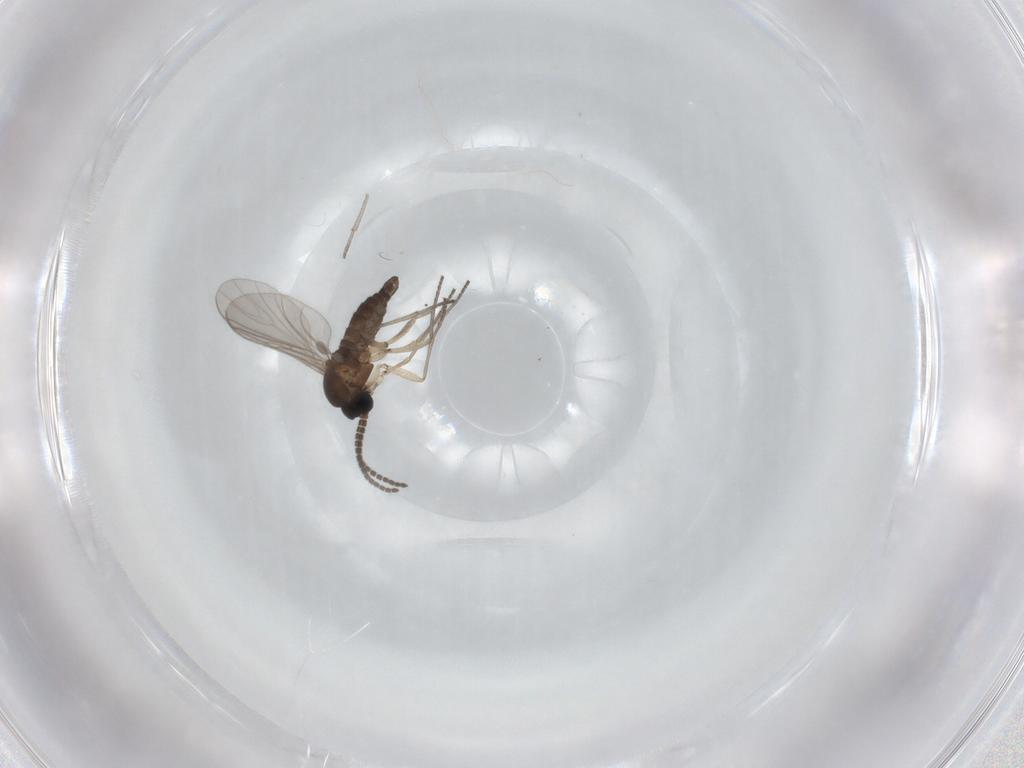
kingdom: Animalia
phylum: Arthropoda
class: Insecta
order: Diptera
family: Sciaridae
